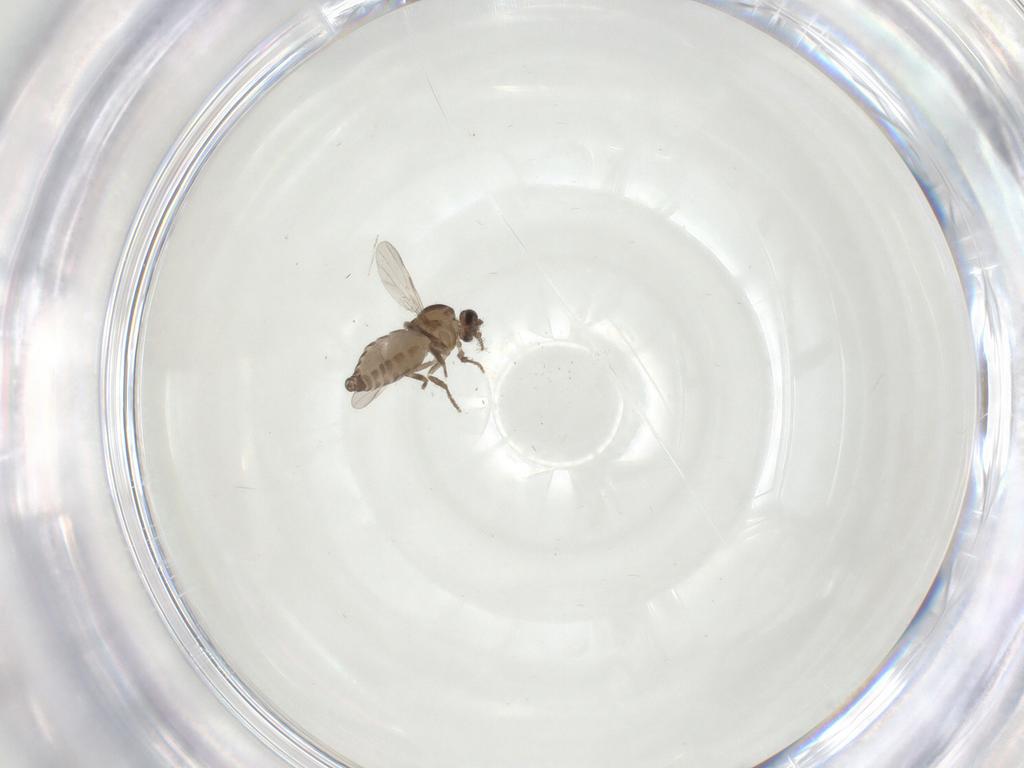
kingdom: Animalia
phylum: Arthropoda
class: Insecta
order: Diptera
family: Ceratopogonidae
